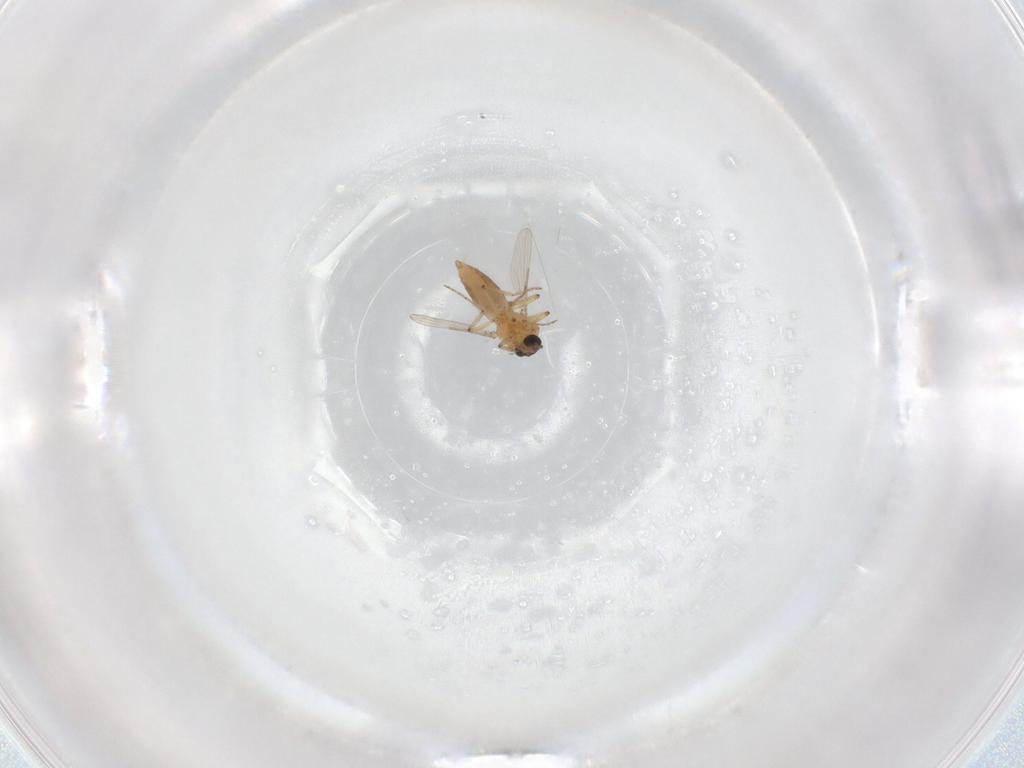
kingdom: Animalia
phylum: Arthropoda
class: Insecta
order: Diptera
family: Ceratopogonidae
